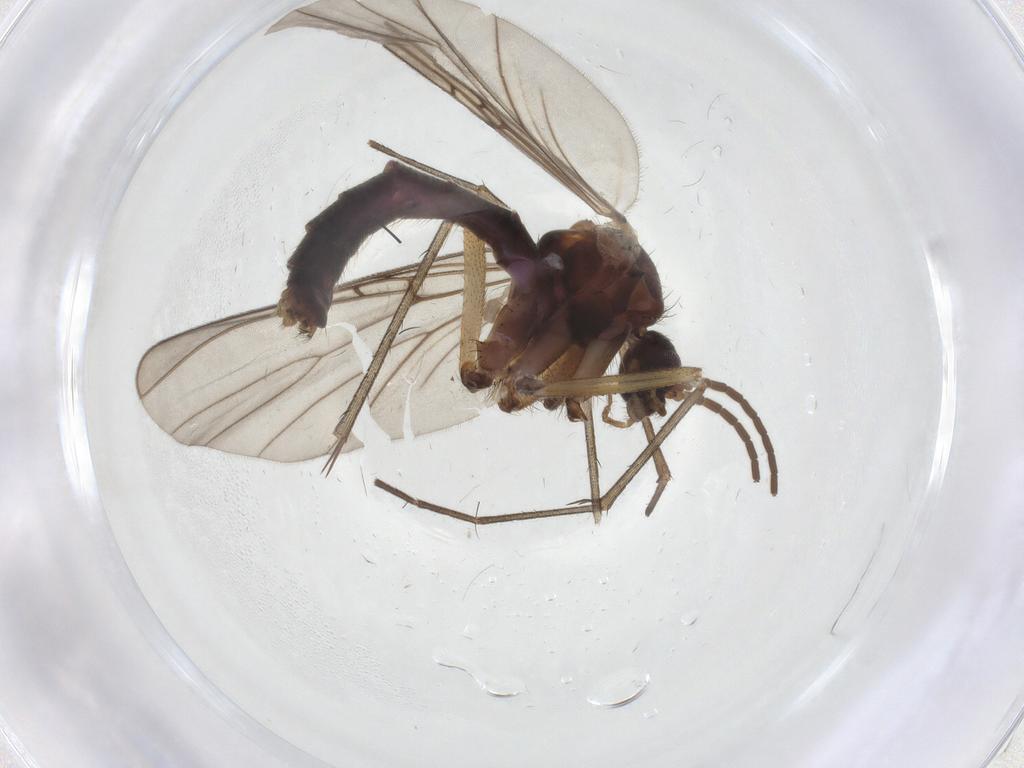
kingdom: Animalia
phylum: Arthropoda
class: Insecta
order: Diptera
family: Mycetophilidae
